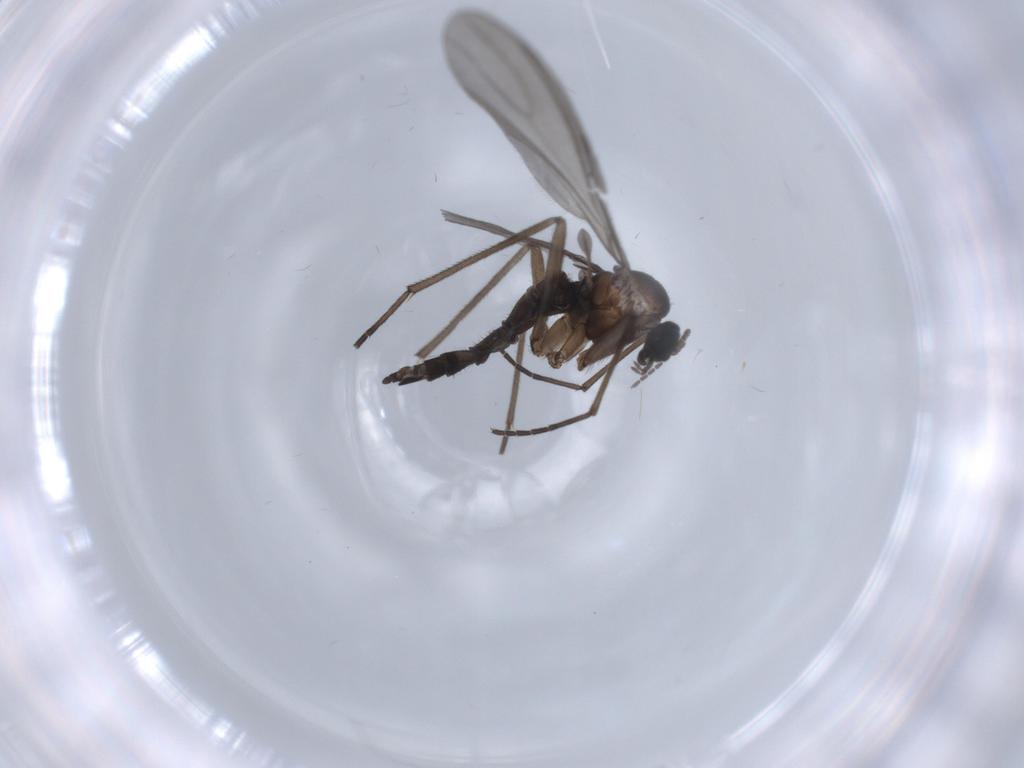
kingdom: Animalia
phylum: Arthropoda
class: Insecta
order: Diptera
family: Sciaridae
